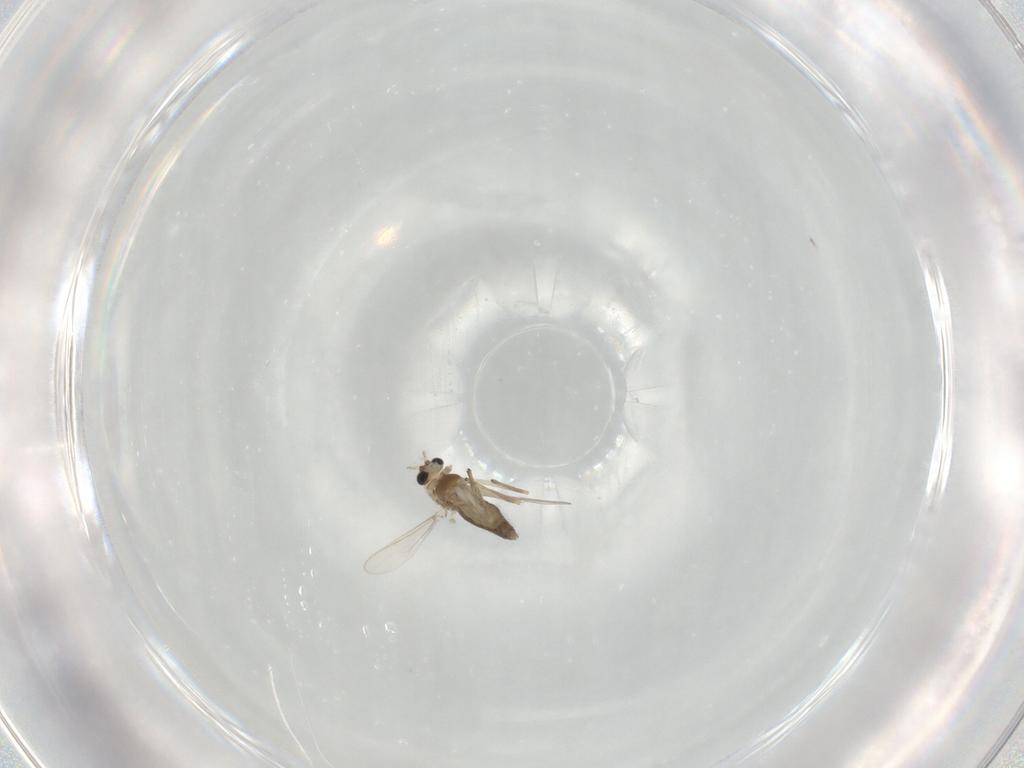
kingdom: Animalia
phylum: Arthropoda
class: Insecta
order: Diptera
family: Chironomidae
